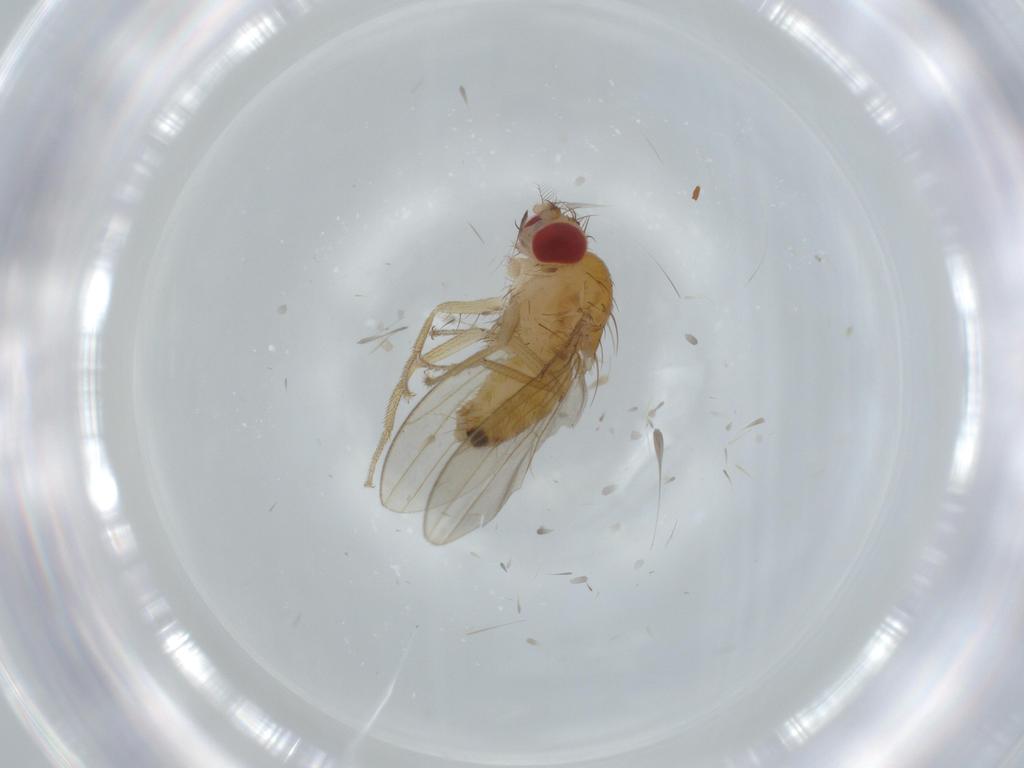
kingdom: Animalia
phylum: Arthropoda
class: Insecta
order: Diptera
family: Drosophilidae
